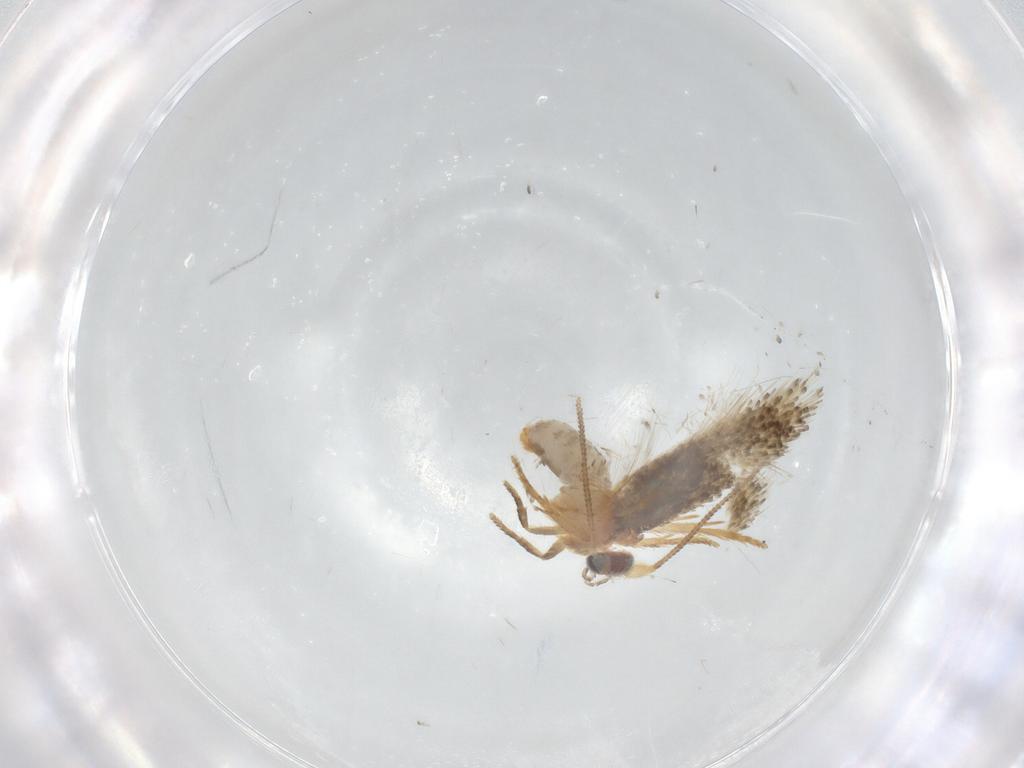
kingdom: Animalia
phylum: Arthropoda
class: Insecta
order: Lepidoptera
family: Nepticulidae
